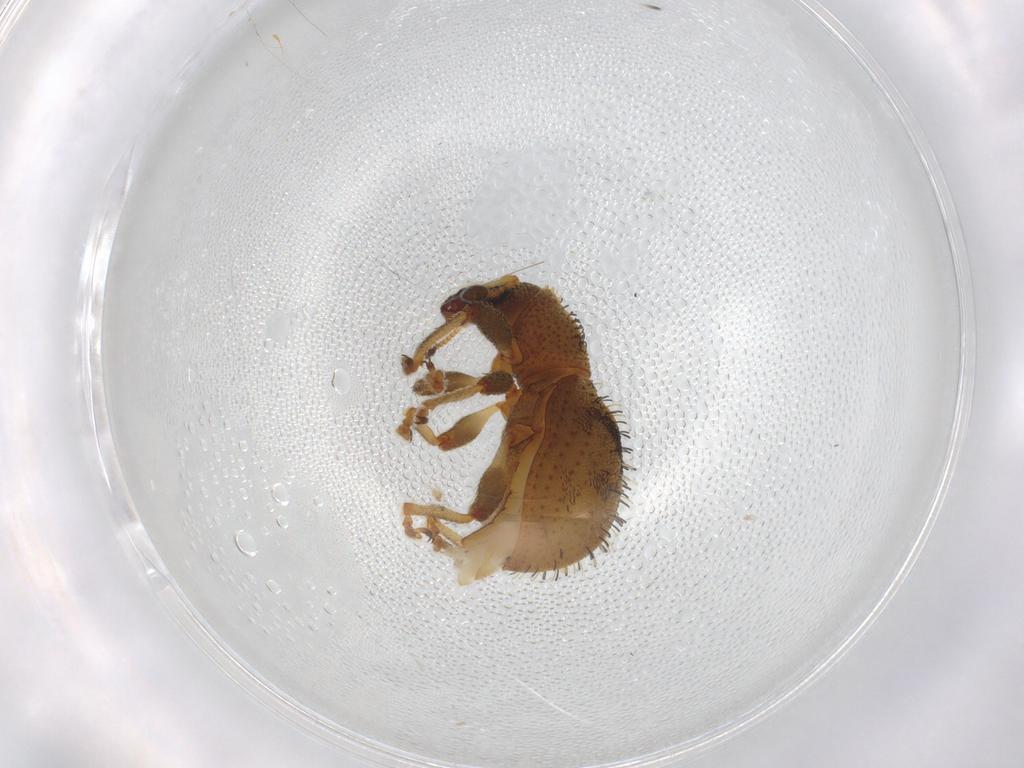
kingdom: Animalia
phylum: Arthropoda
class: Insecta
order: Coleoptera
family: Curculionidae
